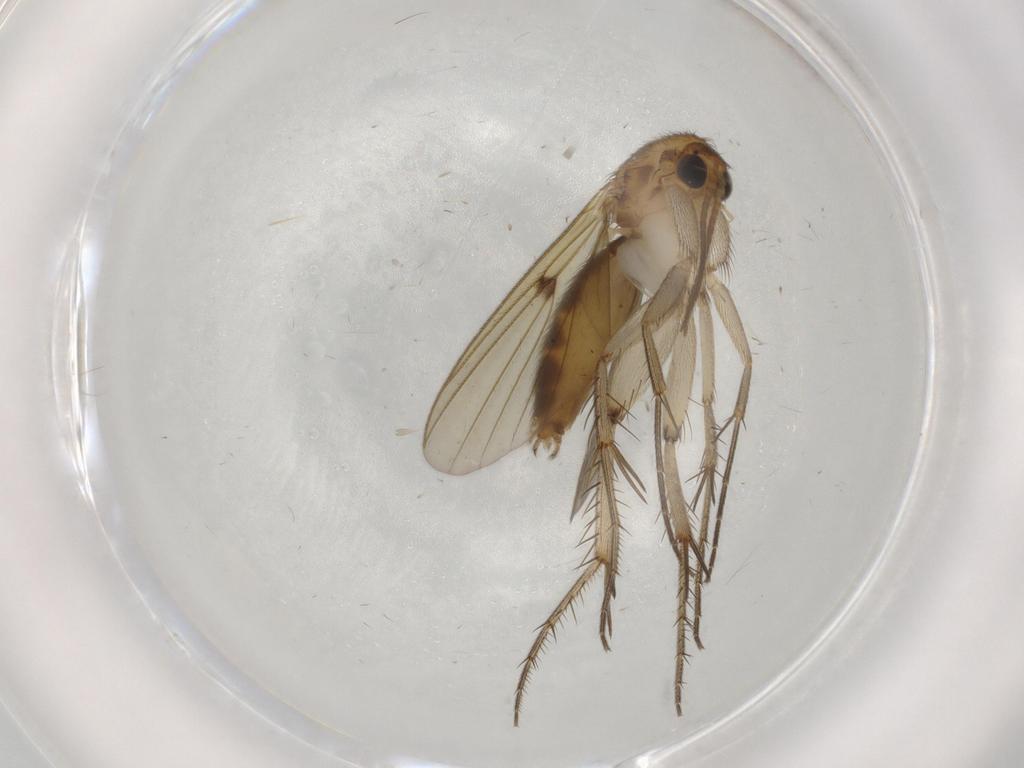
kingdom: Animalia
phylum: Arthropoda
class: Insecta
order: Diptera
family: Mycetophilidae
